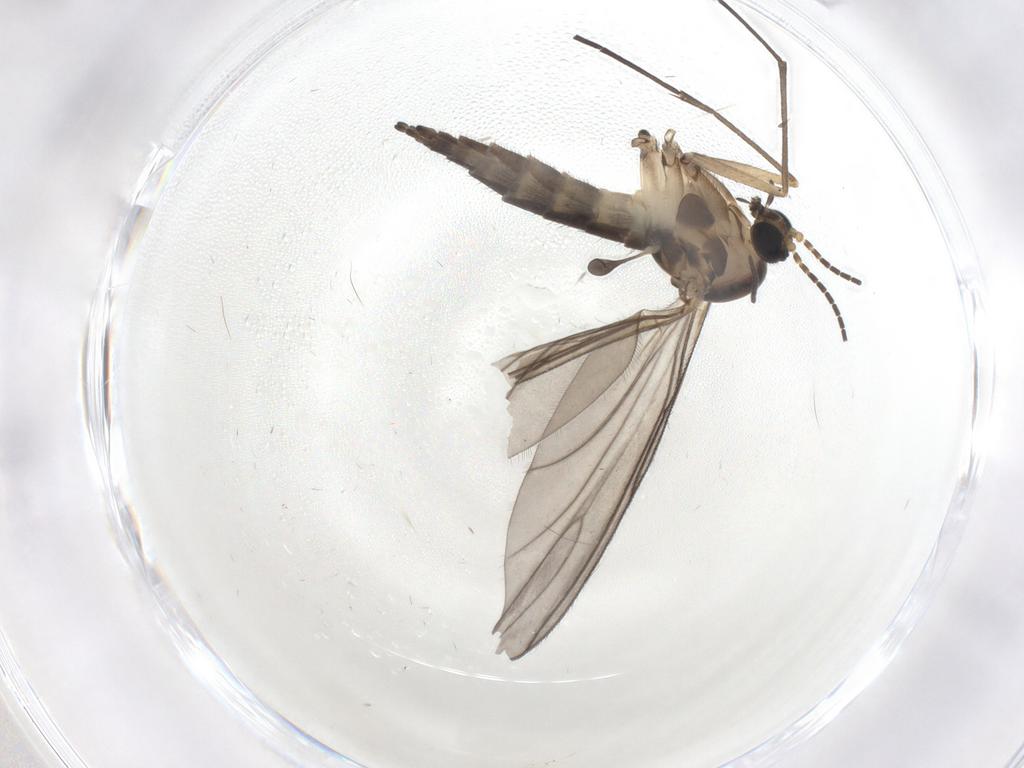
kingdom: Animalia
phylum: Arthropoda
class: Insecta
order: Diptera
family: Sciaridae
